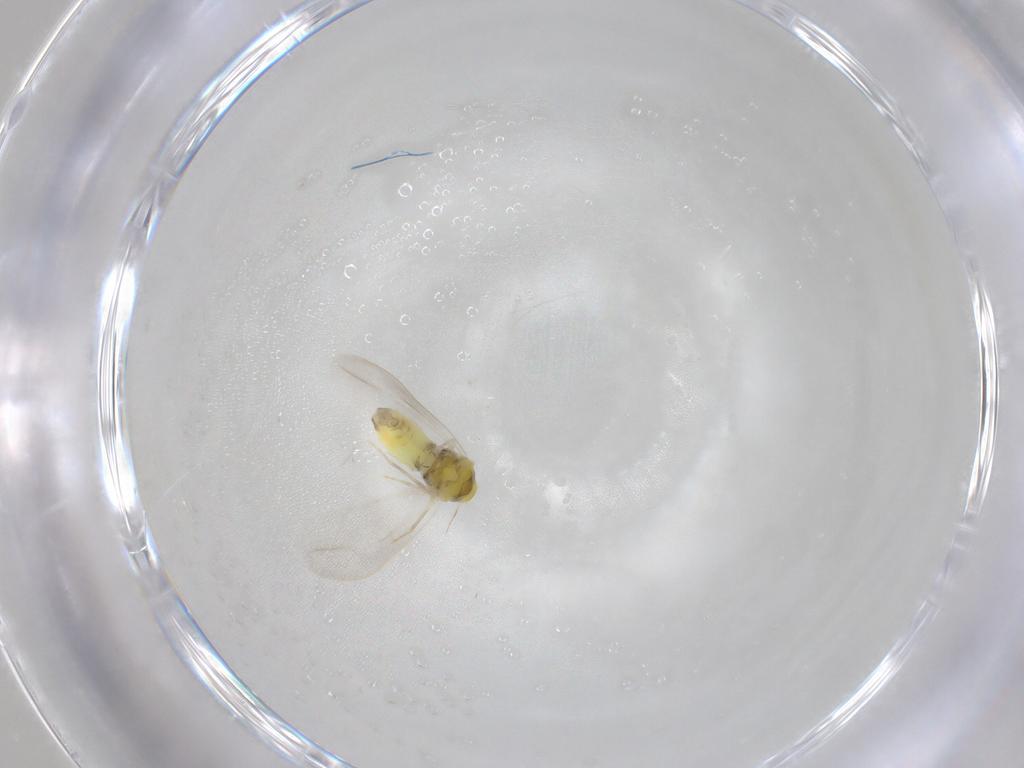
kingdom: Animalia
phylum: Arthropoda
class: Insecta
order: Hemiptera
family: Aleyrodidae
